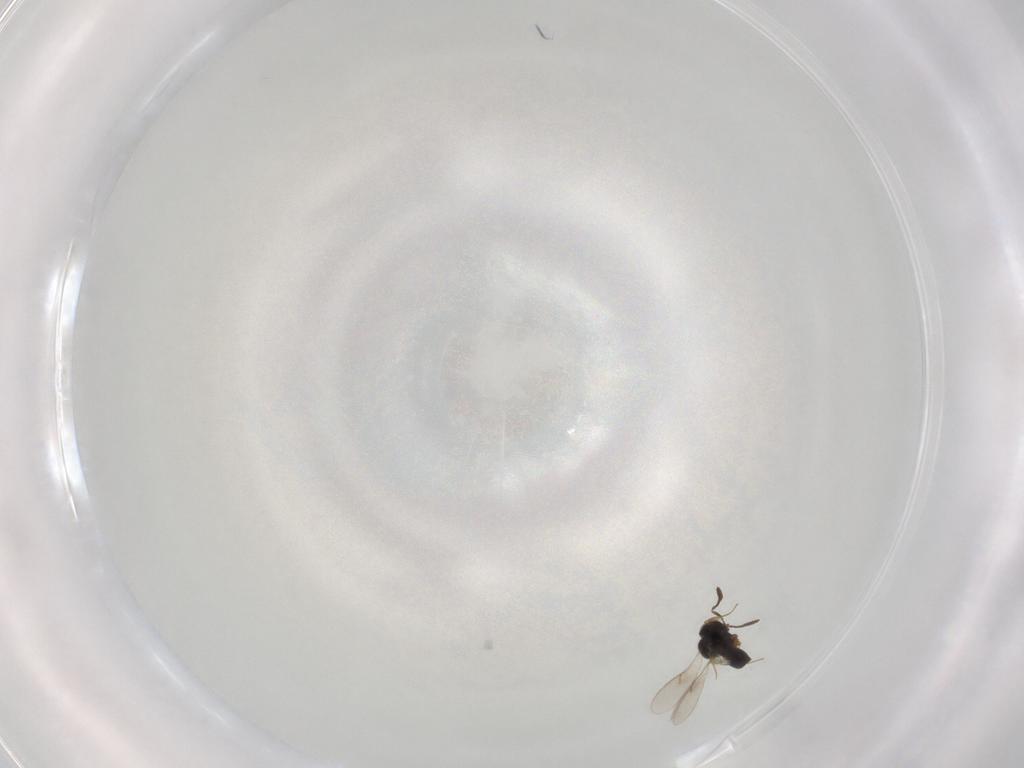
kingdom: Animalia
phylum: Arthropoda
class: Insecta
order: Hymenoptera
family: Scelionidae
